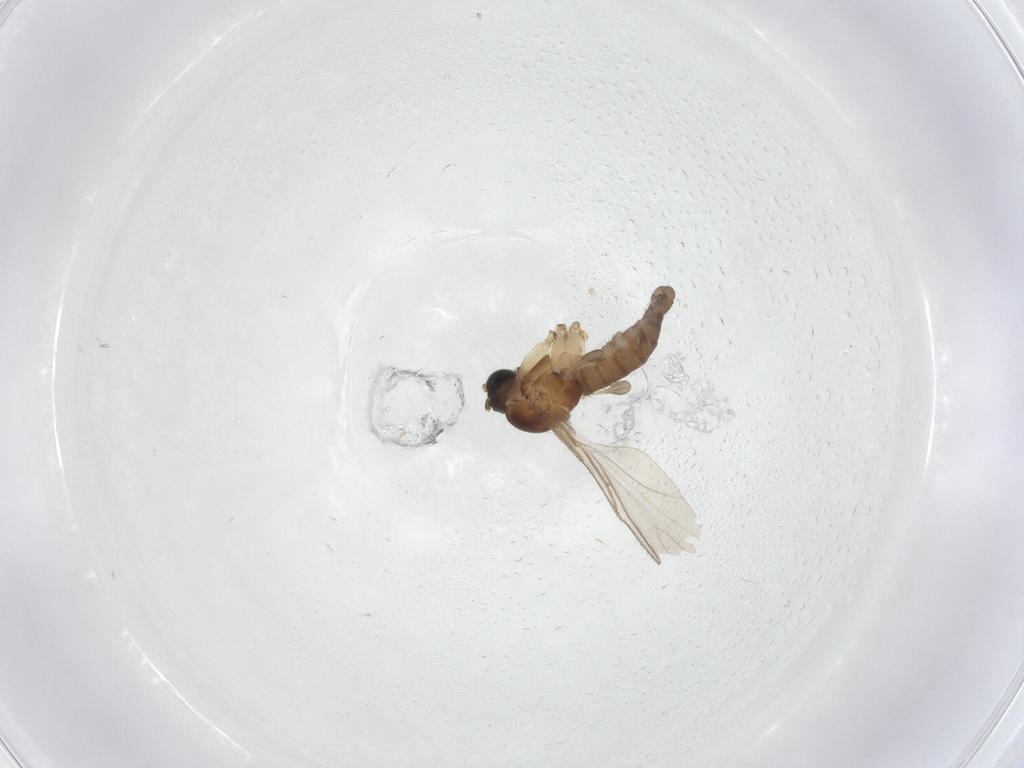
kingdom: Animalia
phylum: Arthropoda
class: Insecta
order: Diptera
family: Sciaridae
